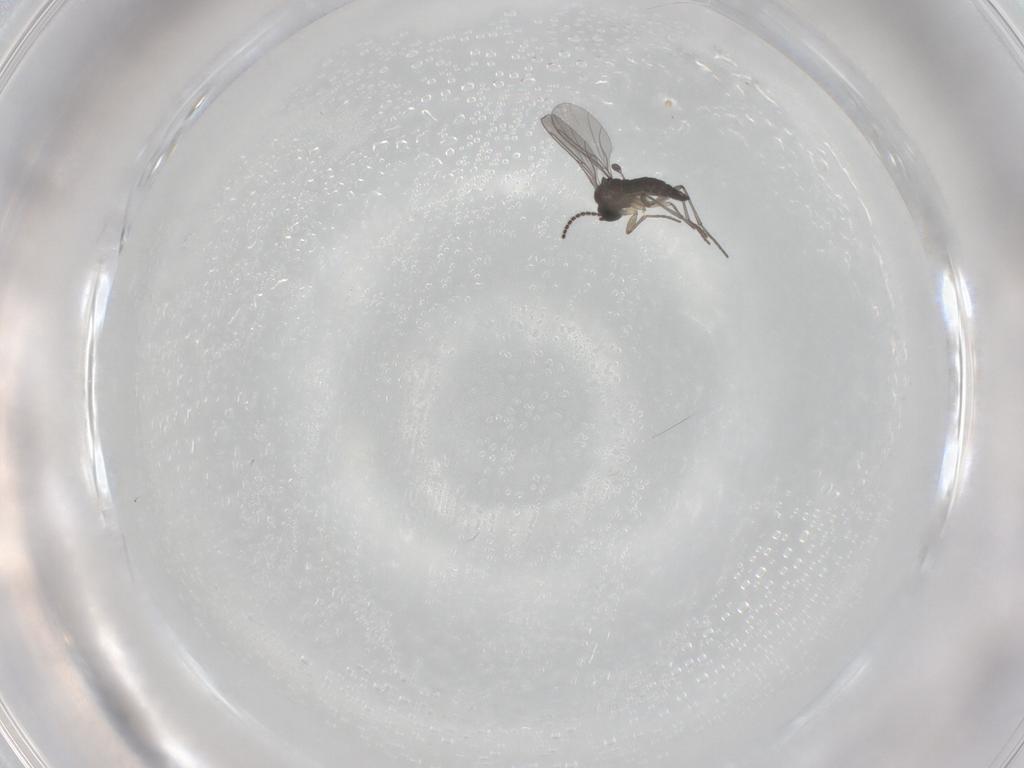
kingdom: Animalia
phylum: Arthropoda
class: Insecta
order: Diptera
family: Sciaridae
